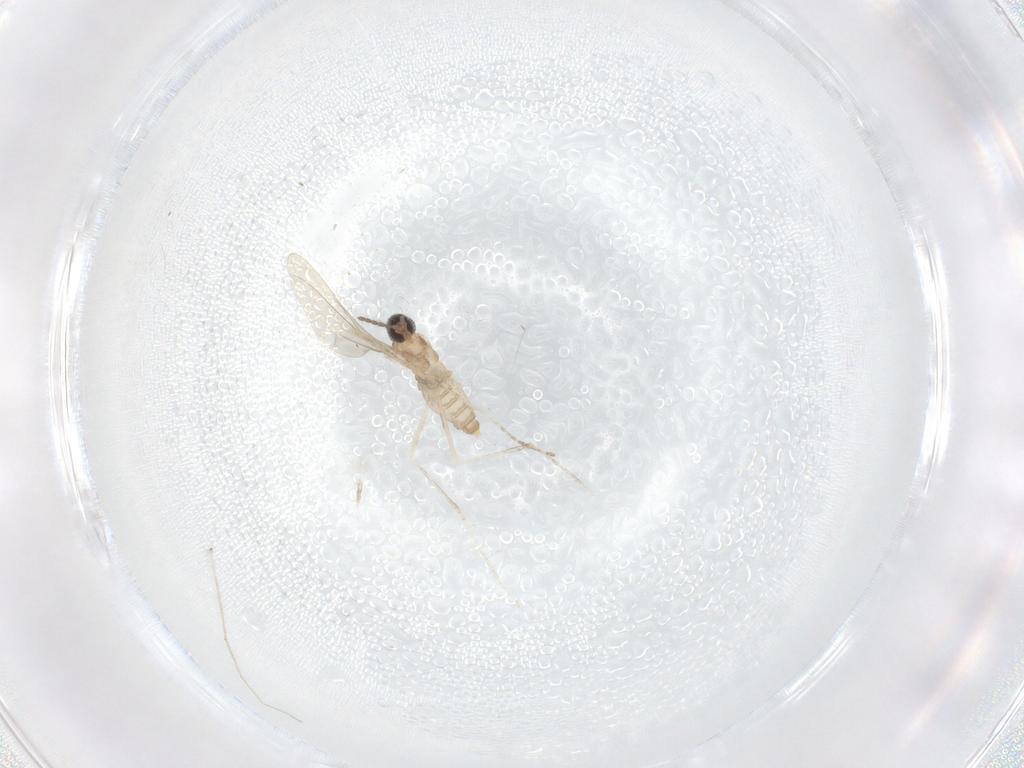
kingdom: Animalia
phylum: Arthropoda
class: Insecta
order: Diptera
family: Chironomidae
